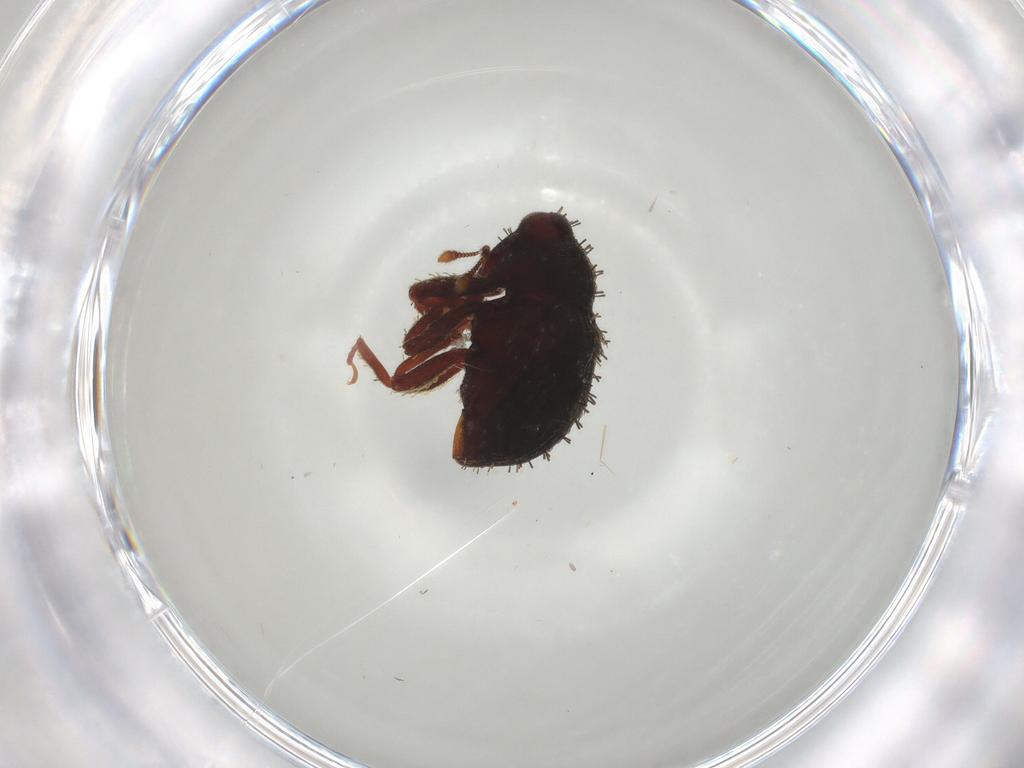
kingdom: Animalia
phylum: Arthropoda
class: Insecta
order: Coleoptera
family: Curculionidae
